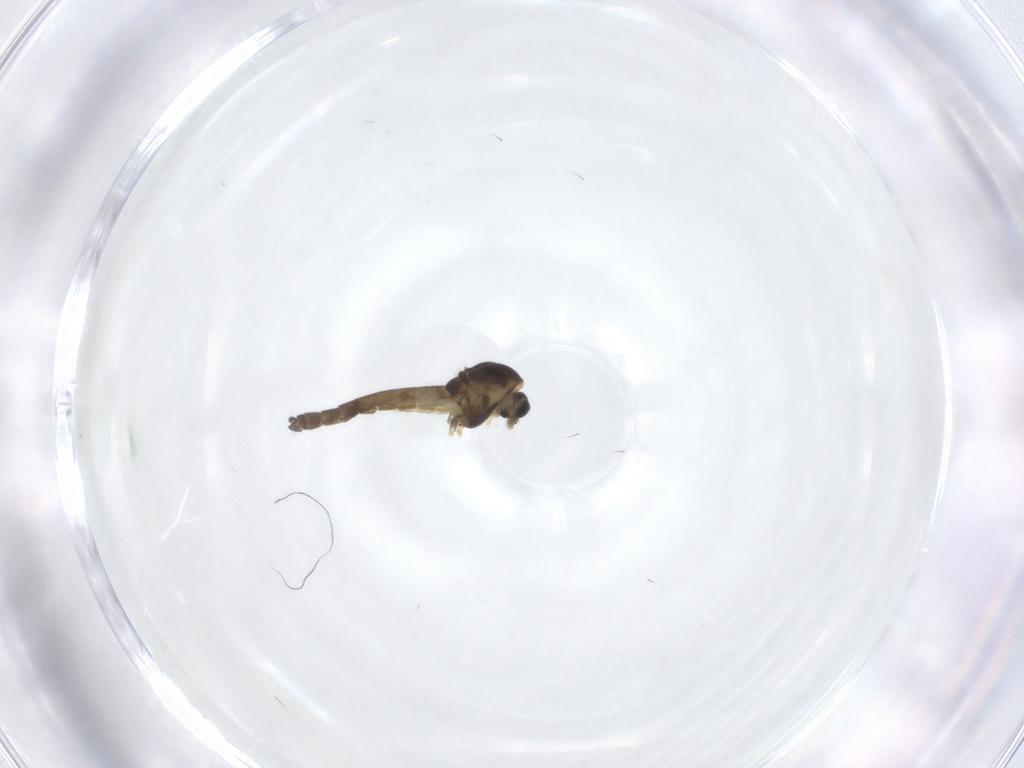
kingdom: Animalia
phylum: Arthropoda
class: Insecta
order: Diptera
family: Chironomidae
